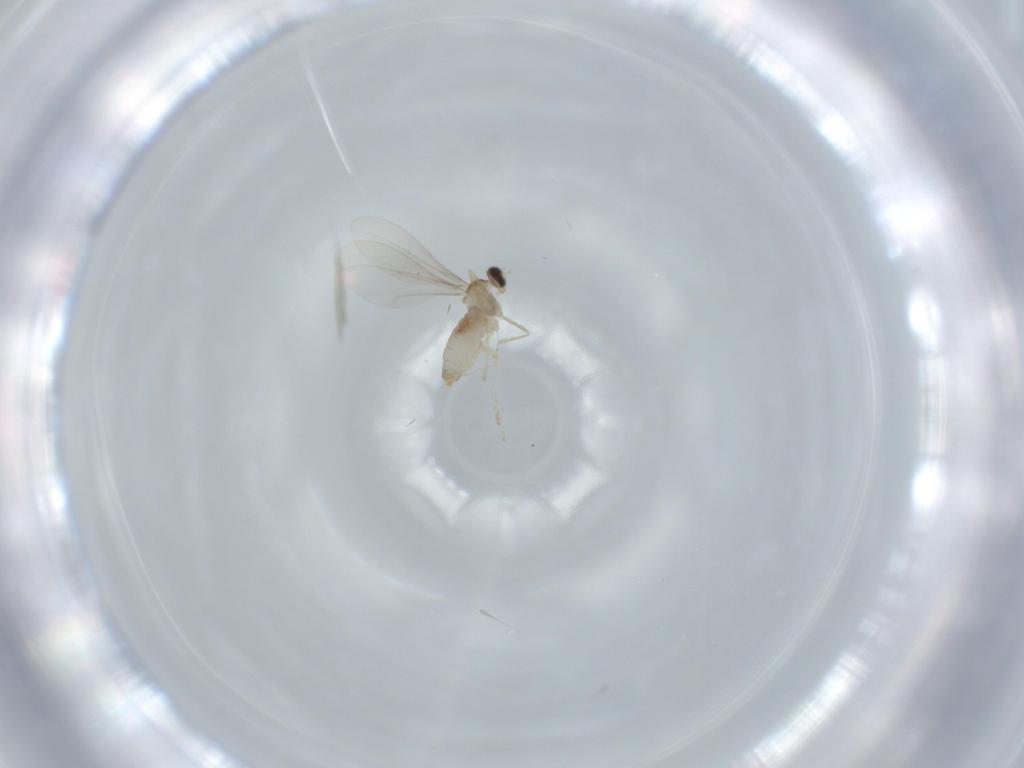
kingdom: Animalia
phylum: Arthropoda
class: Insecta
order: Diptera
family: Cecidomyiidae
